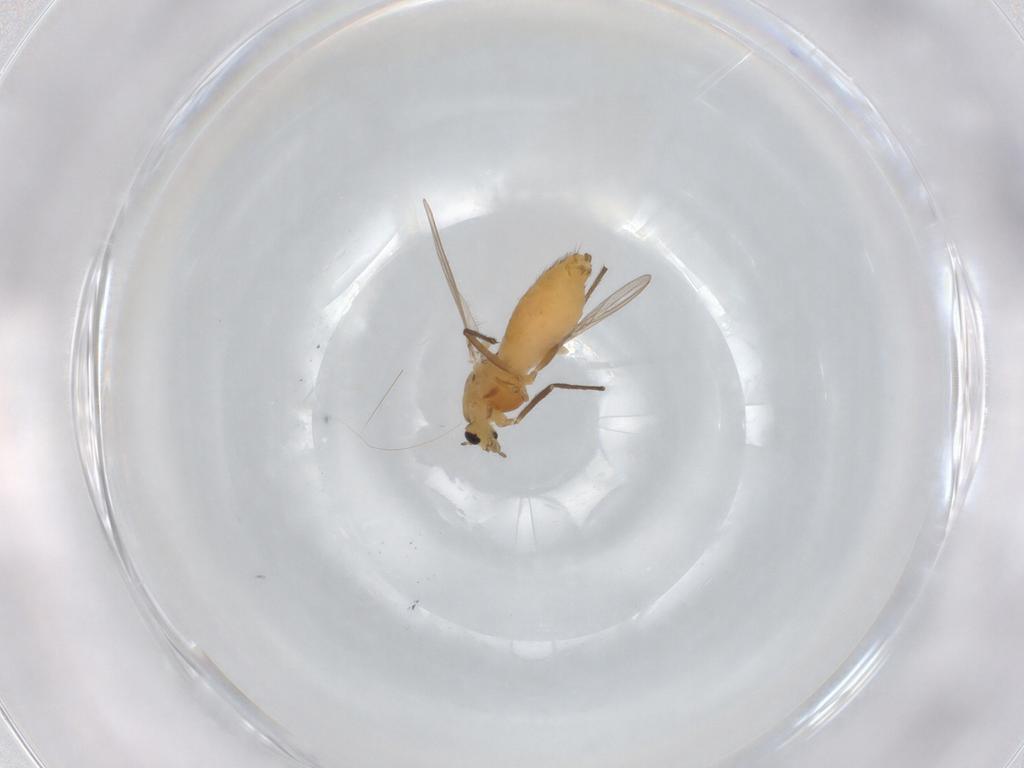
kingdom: Animalia
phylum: Arthropoda
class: Insecta
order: Diptera
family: Chironomidae
